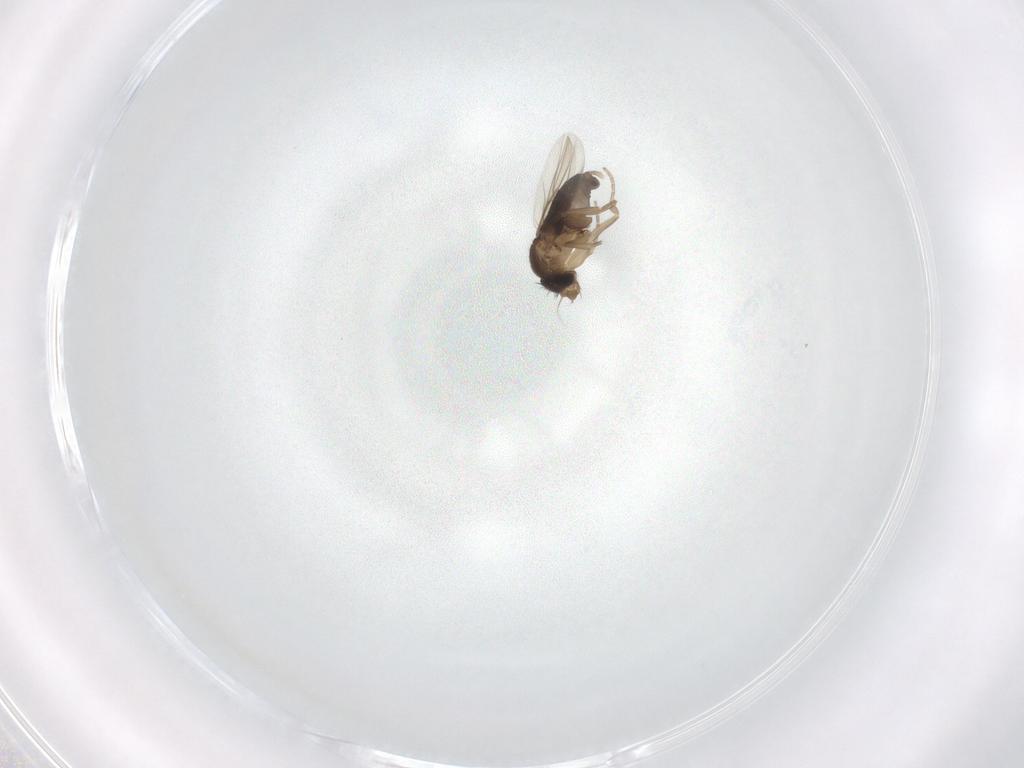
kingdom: Animalia
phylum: Arthropoda
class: Insecta
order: Diptera
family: Phoridae
